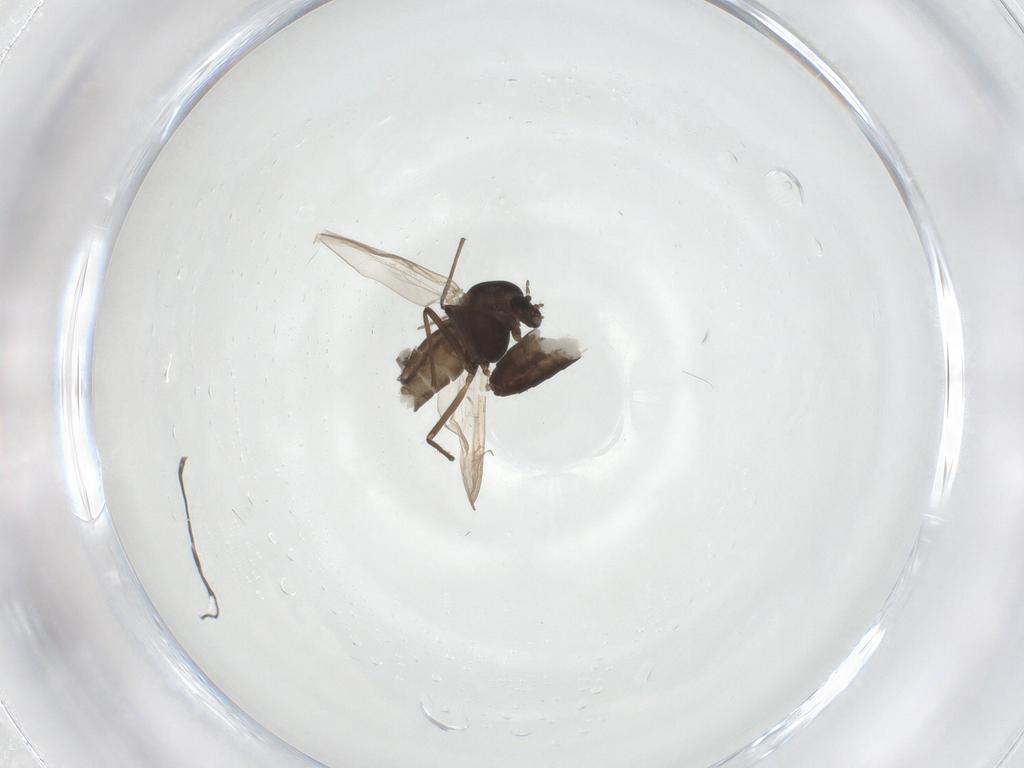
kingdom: Animalia
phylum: Arthropoda
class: Insecta
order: Diptera
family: Chironomidae
